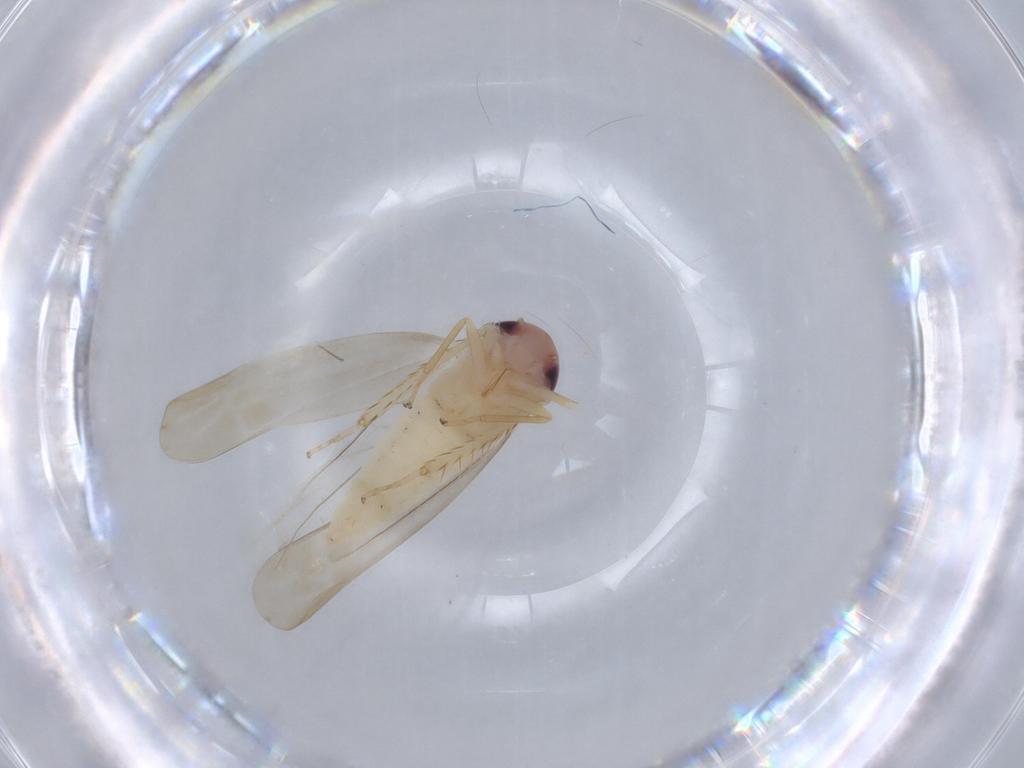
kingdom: Animalia
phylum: Arthropoda
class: Insecta
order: Hemiptera
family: Cicadellidae
